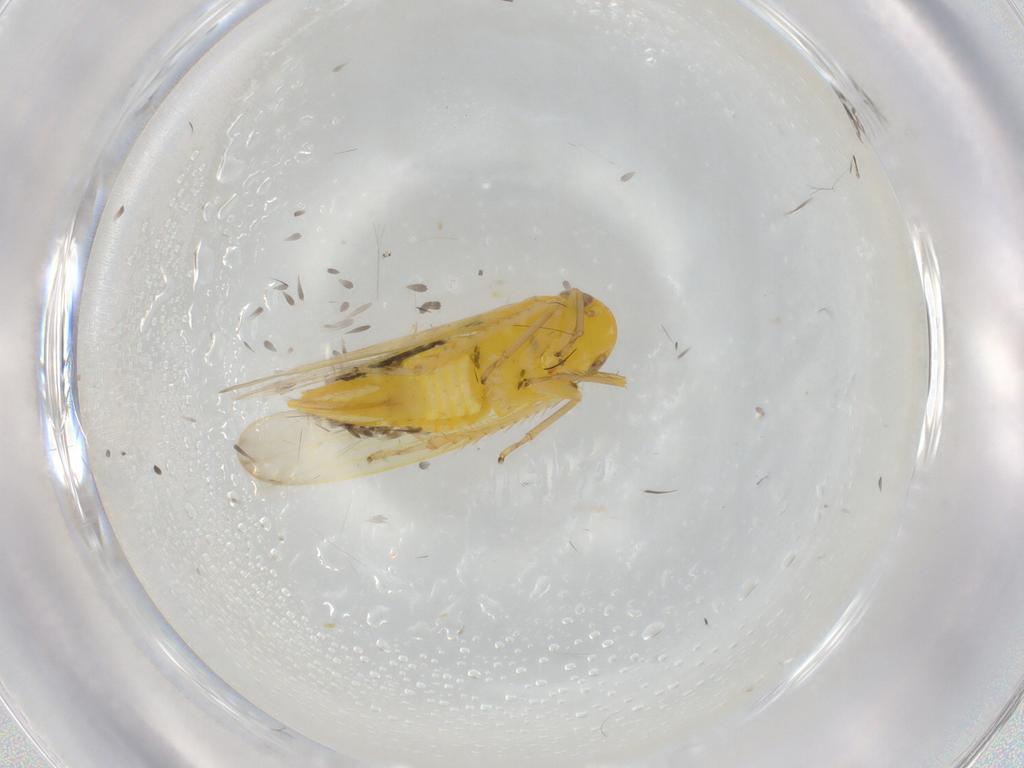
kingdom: Animalia
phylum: Arthropoda
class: Insecta
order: Hemiptera
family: Cicadellidae
